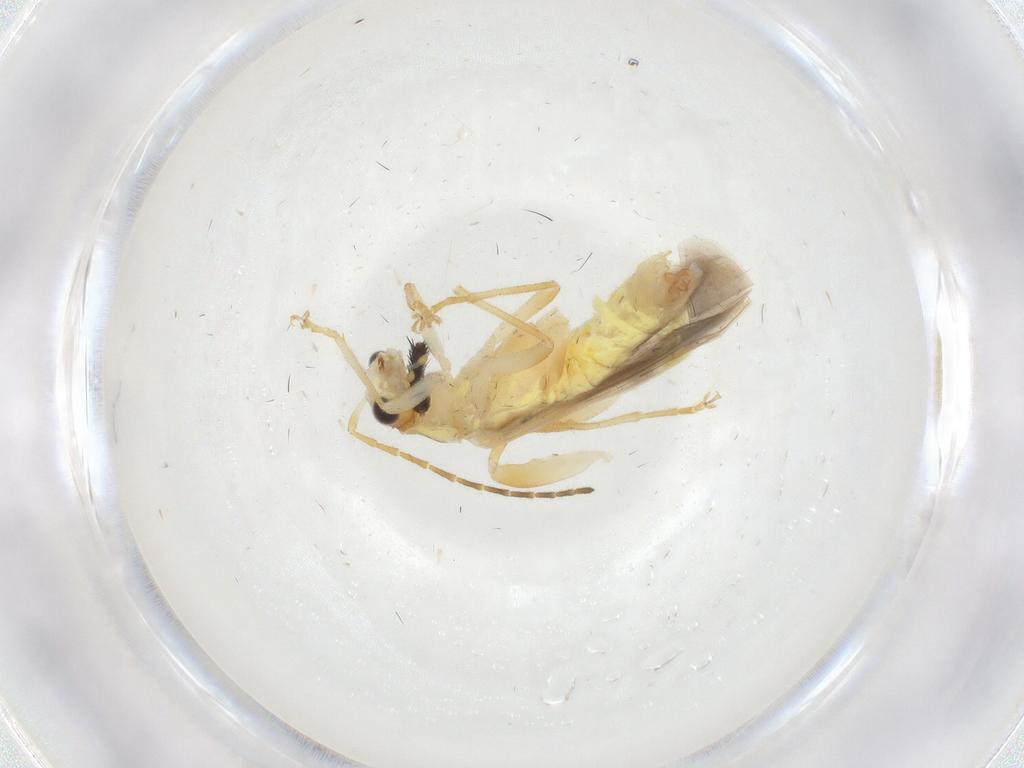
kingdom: Animalia
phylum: Arthropoda
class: Insecta
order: Coleoptera
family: Cantharidae
